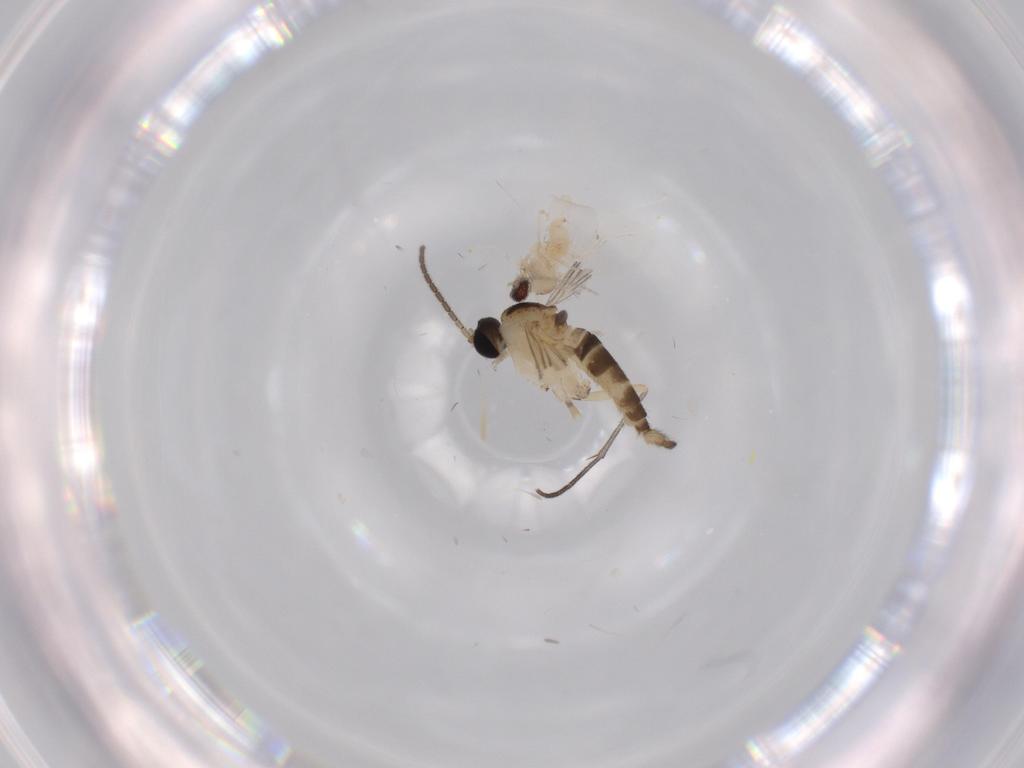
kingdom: Animalia
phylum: Arthropoda
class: Insecta
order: Diptera
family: Sciaridae
